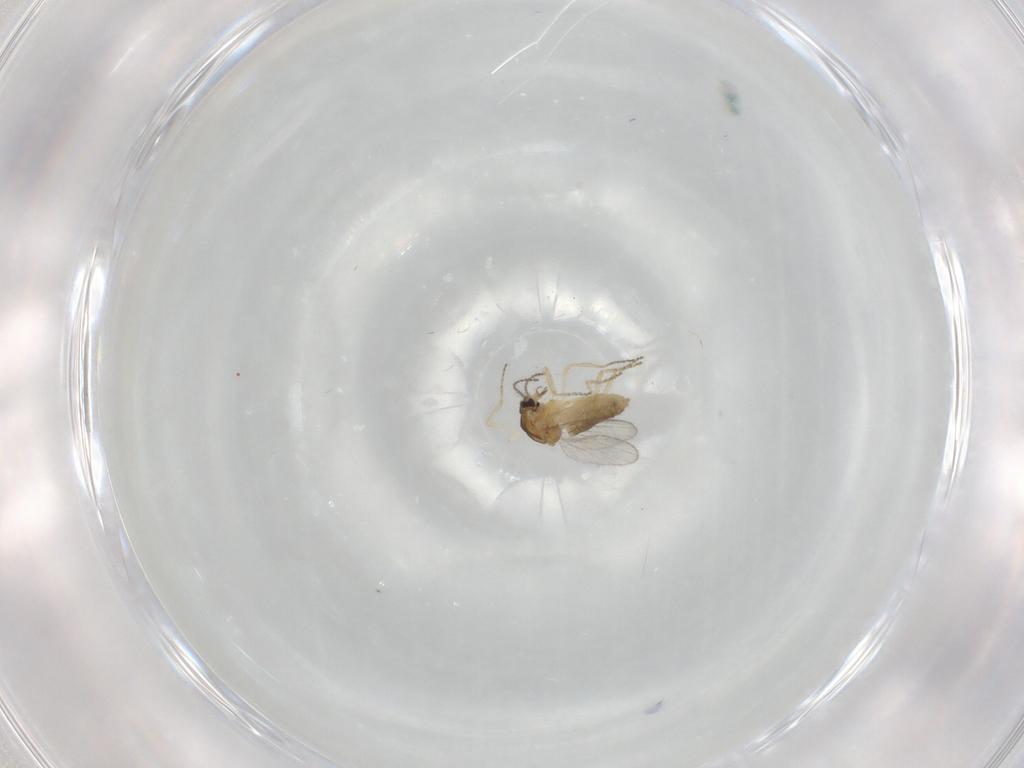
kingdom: Animalia
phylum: Arthropoda
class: Insecta
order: Diptera
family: Ceratopogonidae
